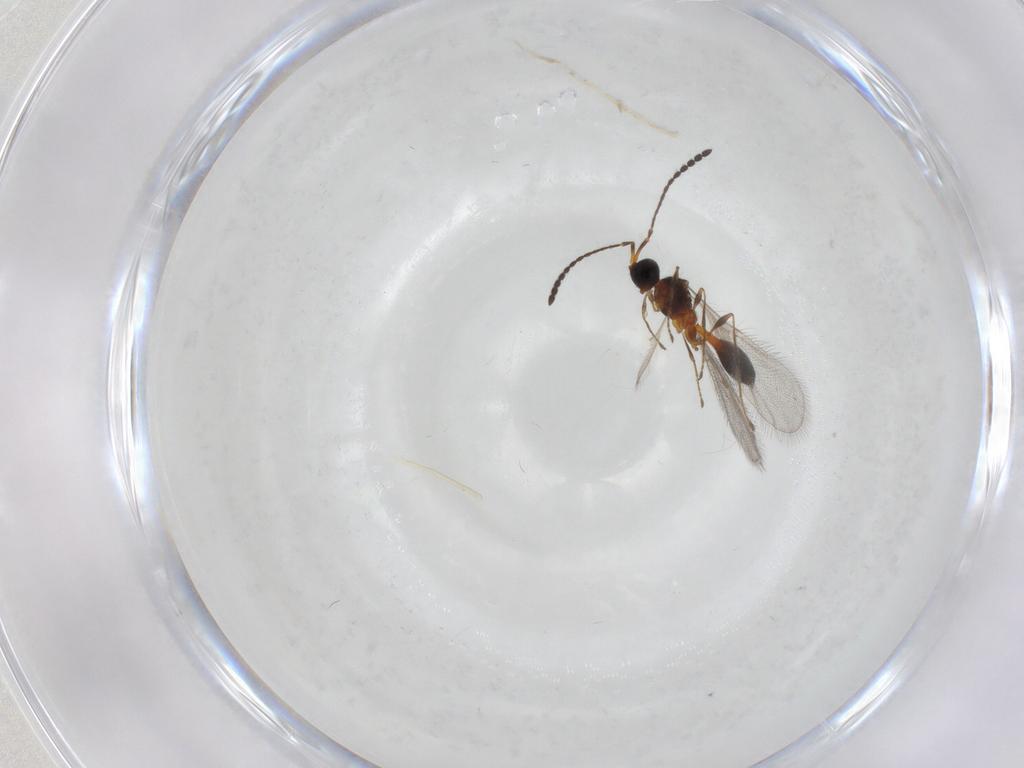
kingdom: Animalia
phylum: Arthropoda
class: Insecta
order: Hymenoptera
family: Diapriidae
